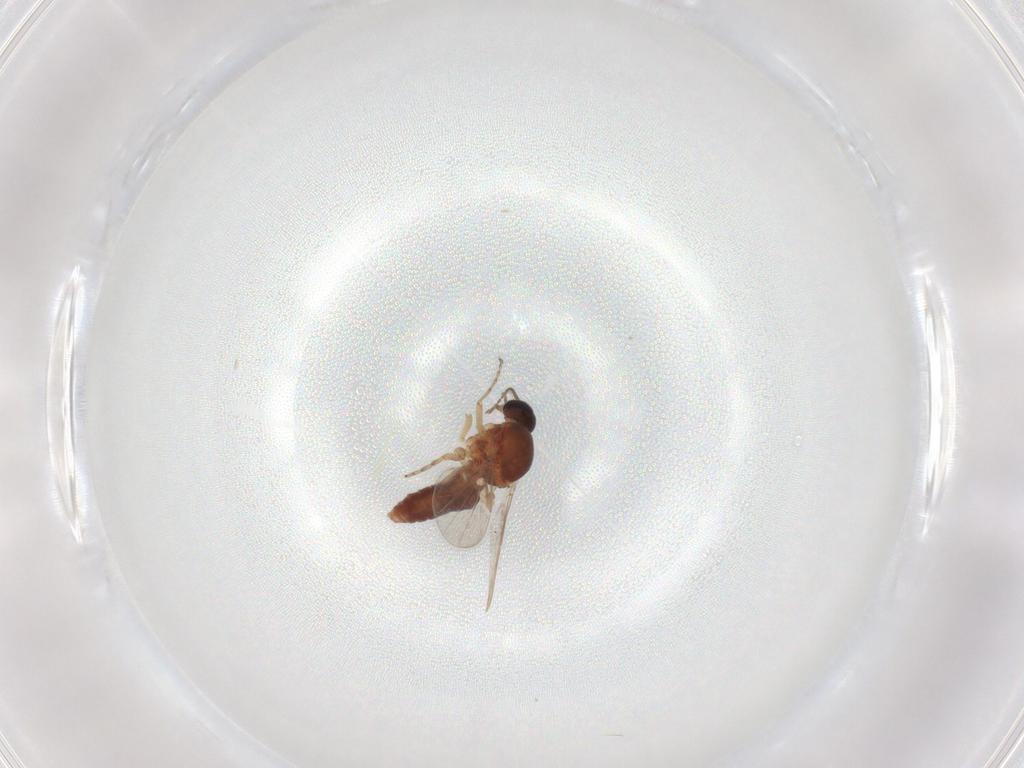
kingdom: Animalia
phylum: Arthropoda
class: Insecta
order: Diptera
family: Ceratopogonidae
